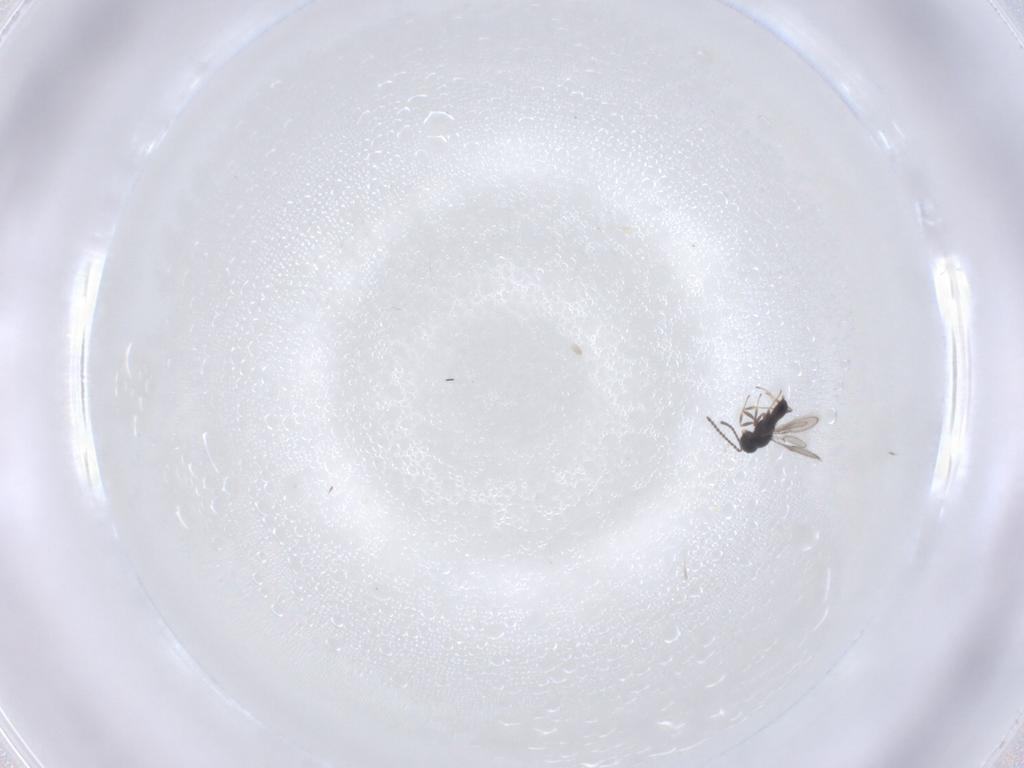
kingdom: Animalia
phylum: Arthropoda
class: Insecta
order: Hymenoptera
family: Scelionidae
